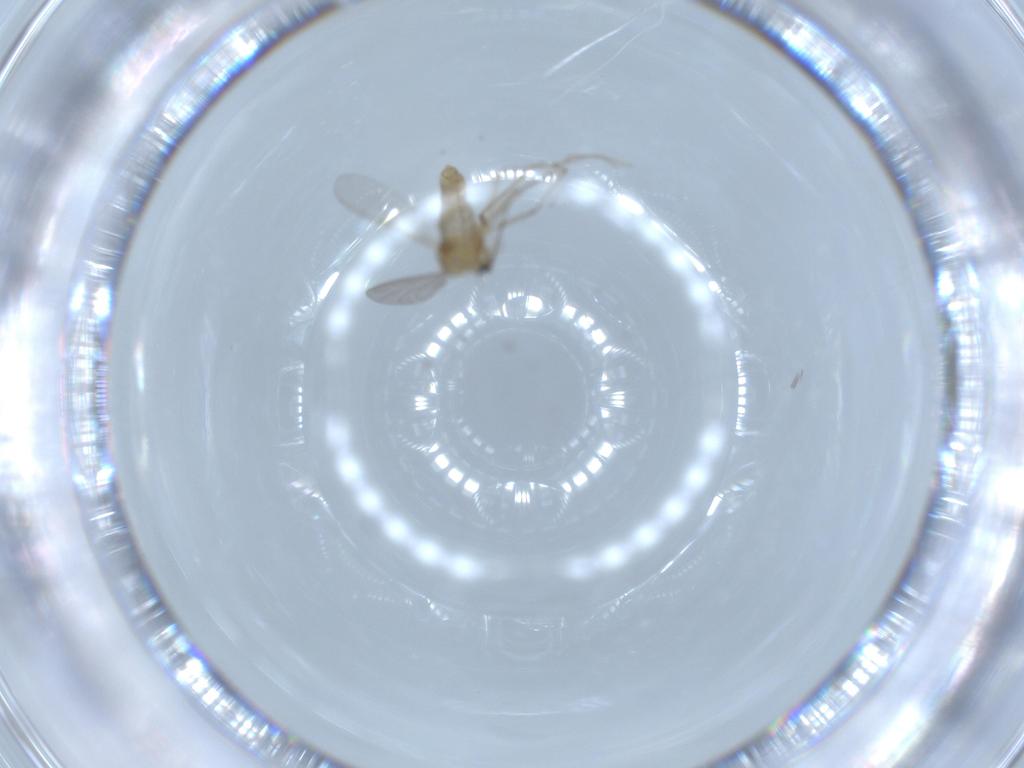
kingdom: Animalia
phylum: Arthropoda
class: Insecta
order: Diptera
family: Chironomidae
